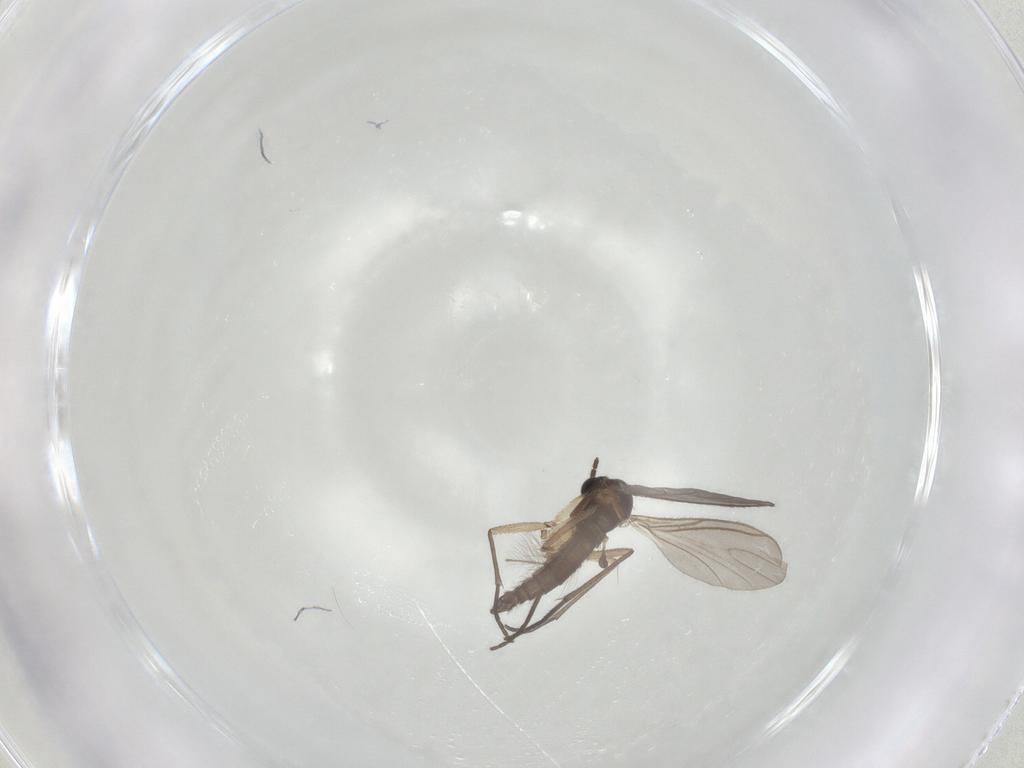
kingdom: Animalia
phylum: Arthropoda
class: Insecta
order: Diptera
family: Sciaridae
